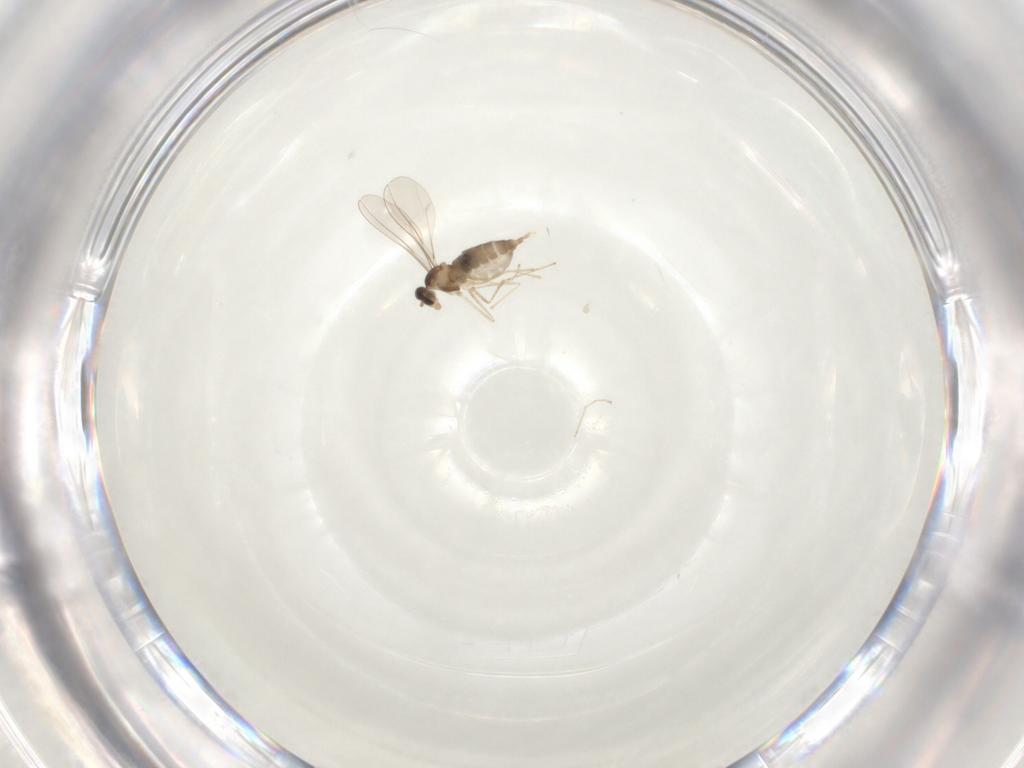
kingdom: Animalia
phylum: Arthropoda
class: Insecta
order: Diptera
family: Cecidomyiidae
